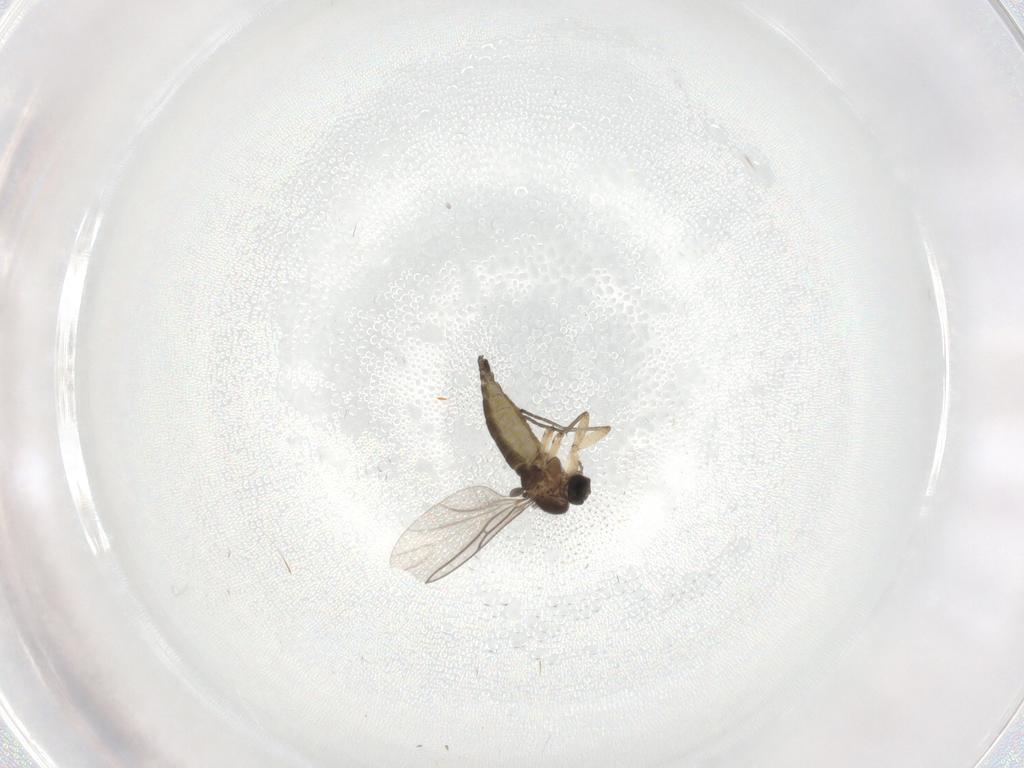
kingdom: Animalia
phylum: Arthropoda
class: Insecta
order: Diptera
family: Sciaridae
